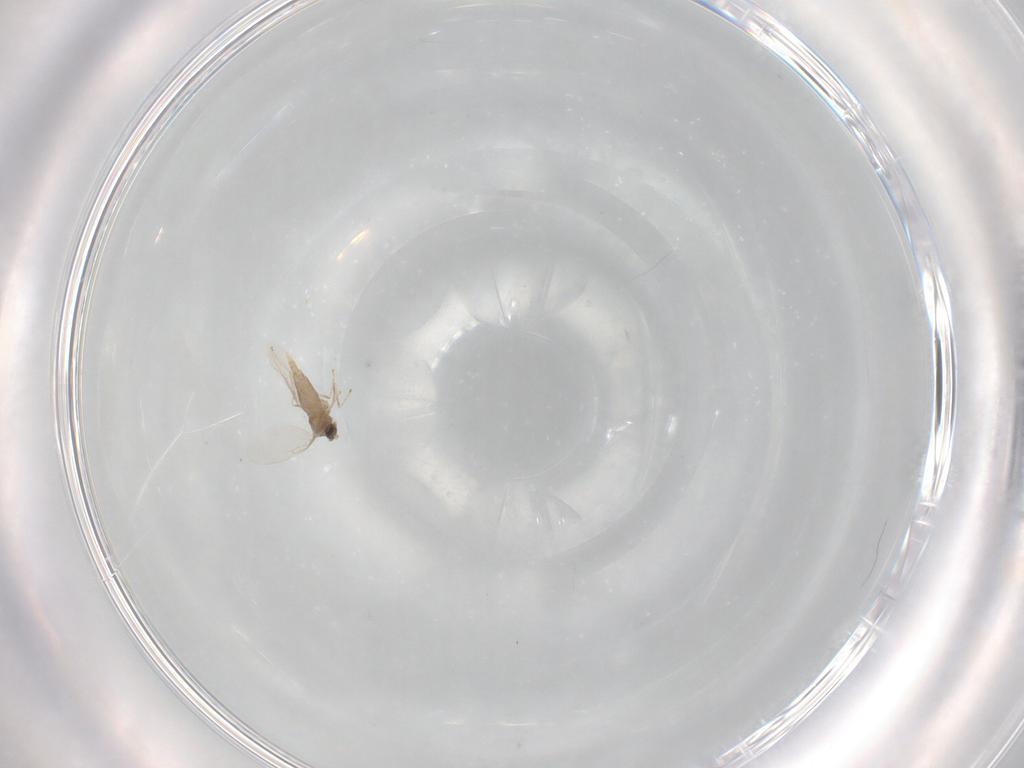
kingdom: Animalia
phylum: Arthropoda
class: Insecta
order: Diptera
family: Cecidomyiidae
